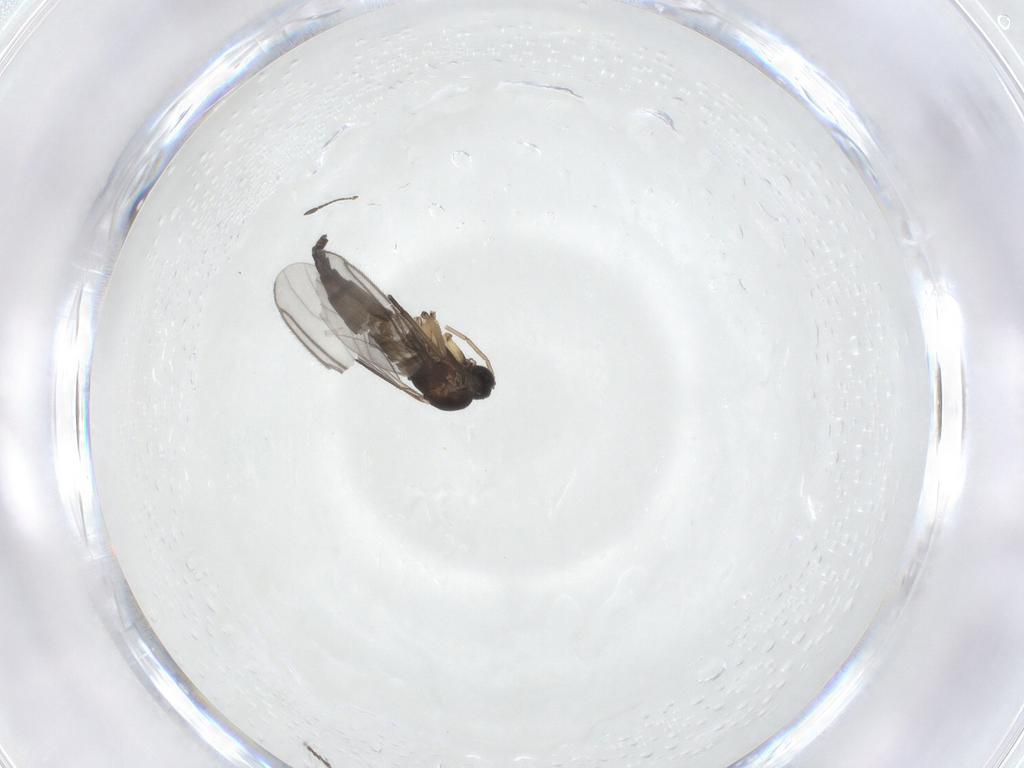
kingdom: Animalia
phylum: Arthropoda
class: Insecta
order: Diptera
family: Sciaridae
